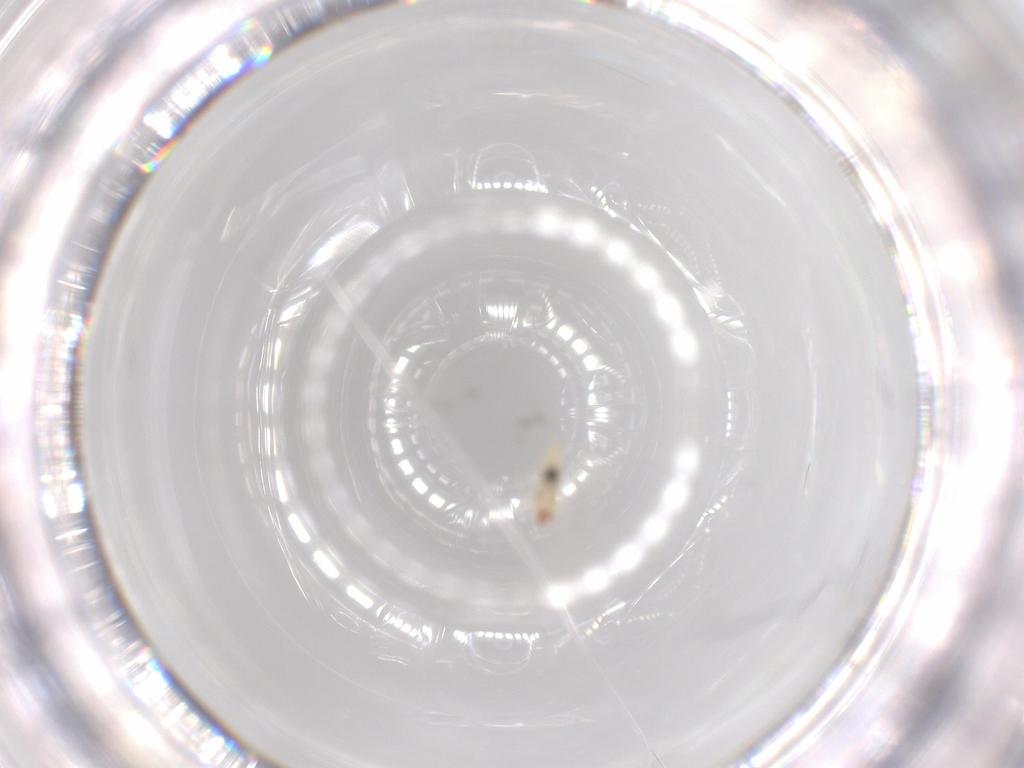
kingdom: Animalia
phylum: Arthropoda
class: Insecta
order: Diptera
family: Cecidomyiidae
